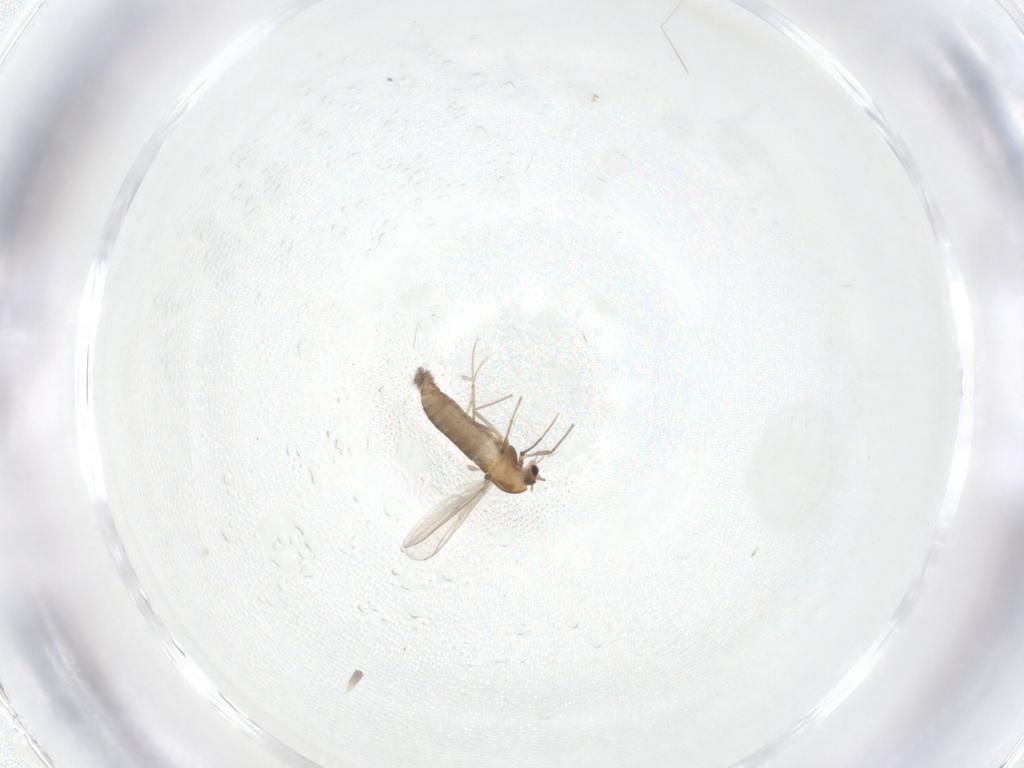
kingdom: Animalia
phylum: Arthropoda
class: Insecta
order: Diptera
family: Chironomidae
